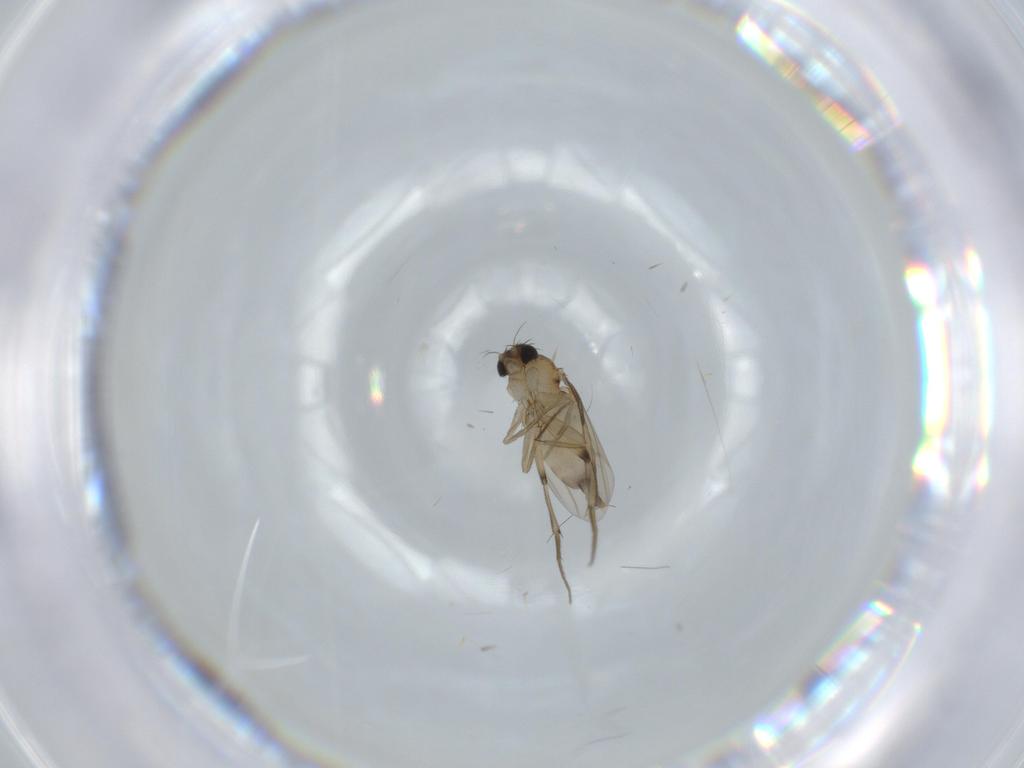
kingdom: Animalia
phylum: Arthropoda
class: Insecta
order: Diptera
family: Phoridae
